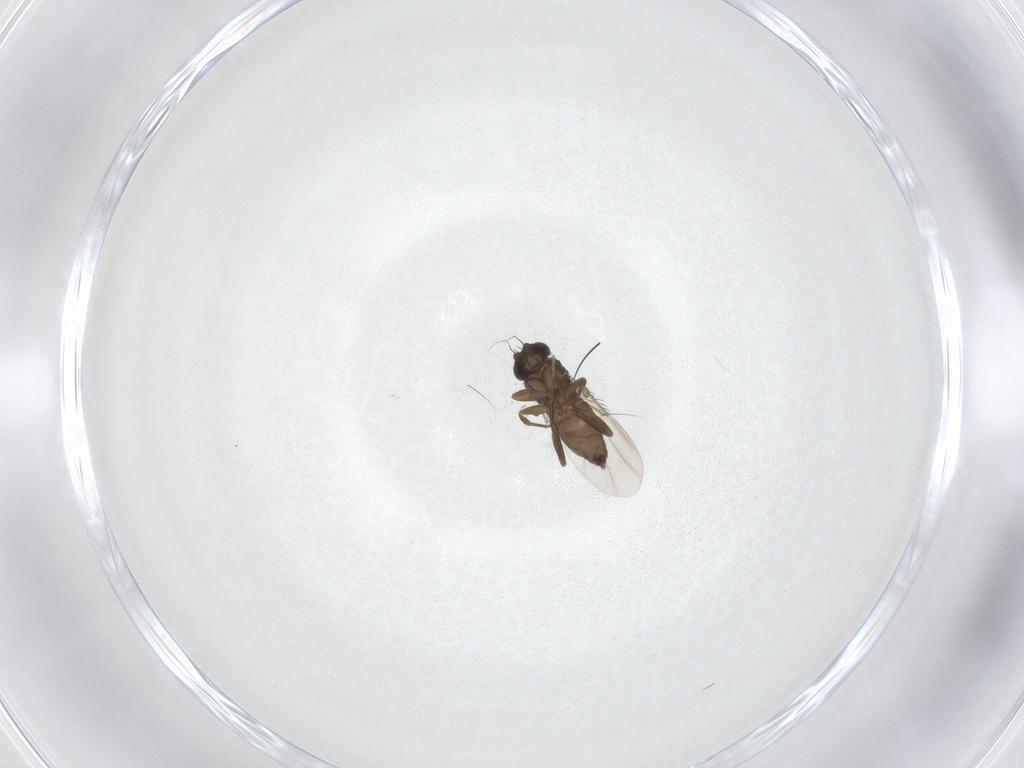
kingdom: Animalia
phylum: Arthropoda
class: Insecta
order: Diptera
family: Phoridae
